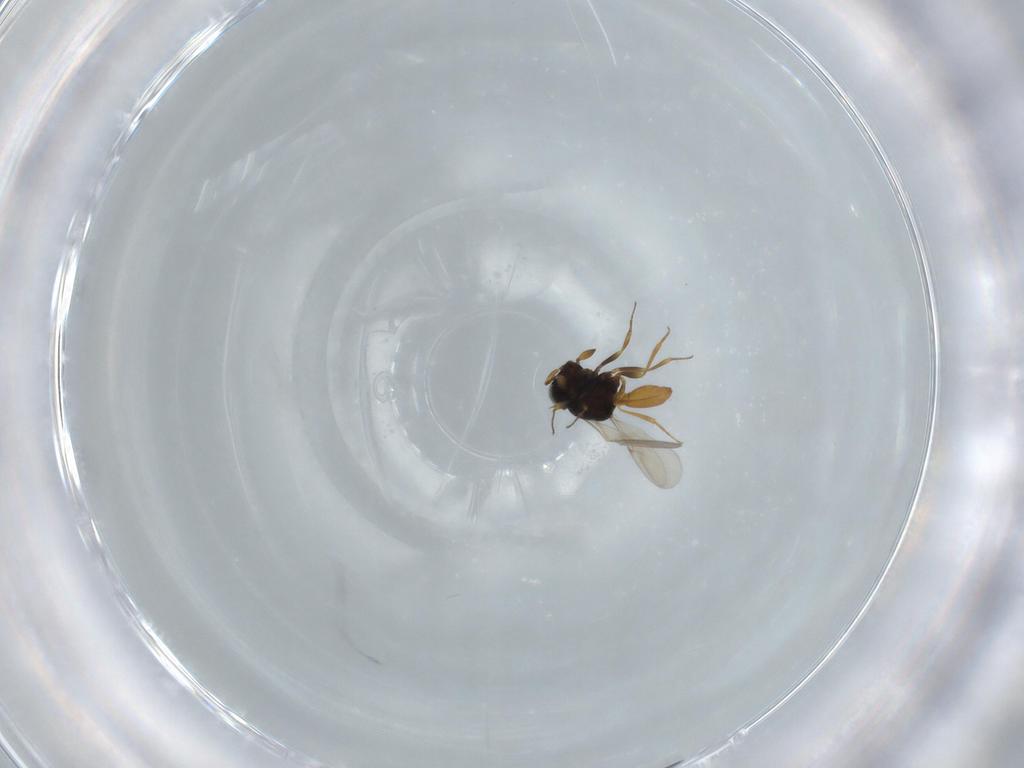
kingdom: Animalia
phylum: Arthropoda
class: Insecta
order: Hymenoptera
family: Scelionidae
